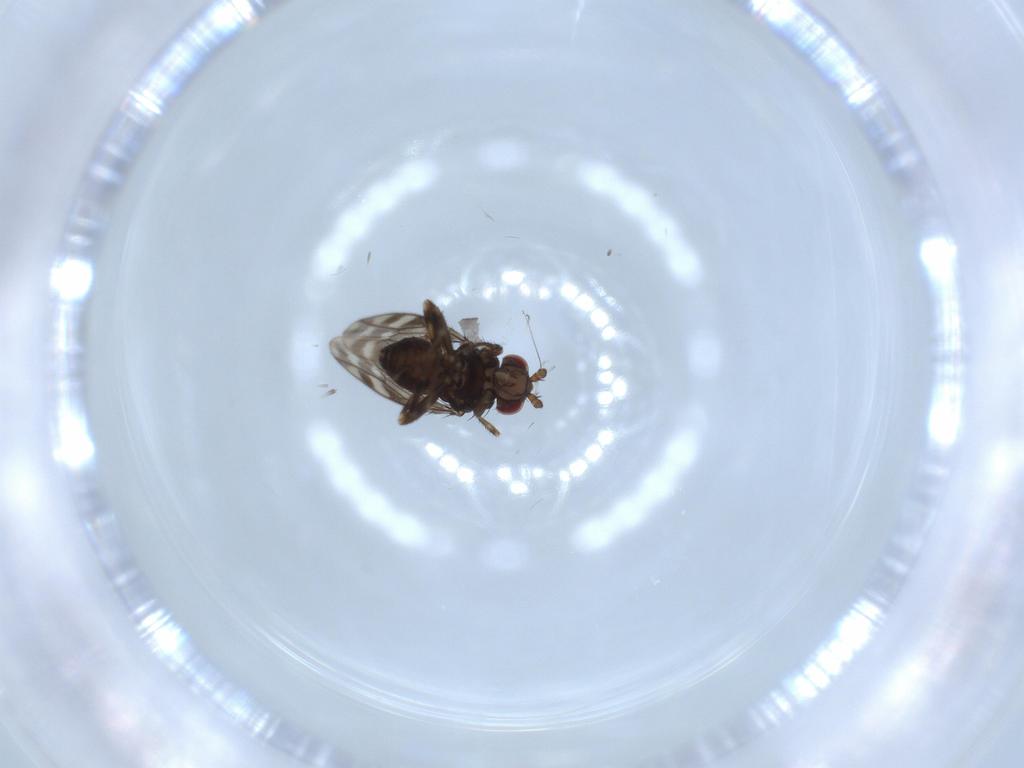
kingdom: Animalia
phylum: Arthropoda
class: Insecta
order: Diptera
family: Sphaeroceridae
